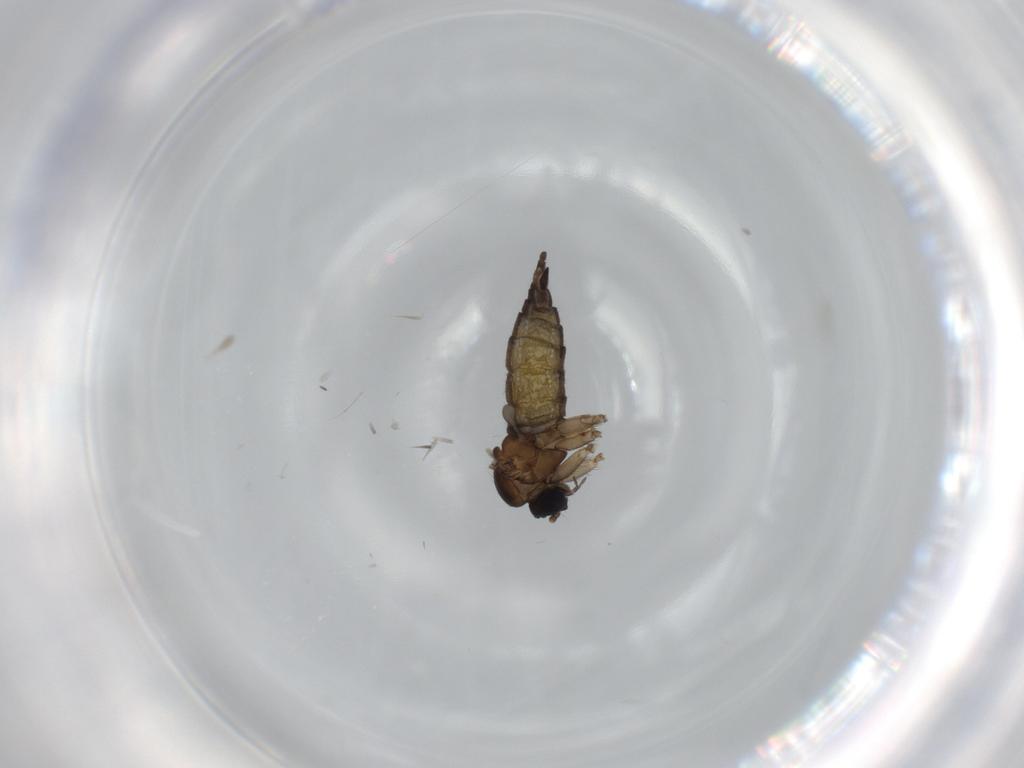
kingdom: Animalia
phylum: Arthropoda
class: Insecta
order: Diptera
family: Sciaridae
